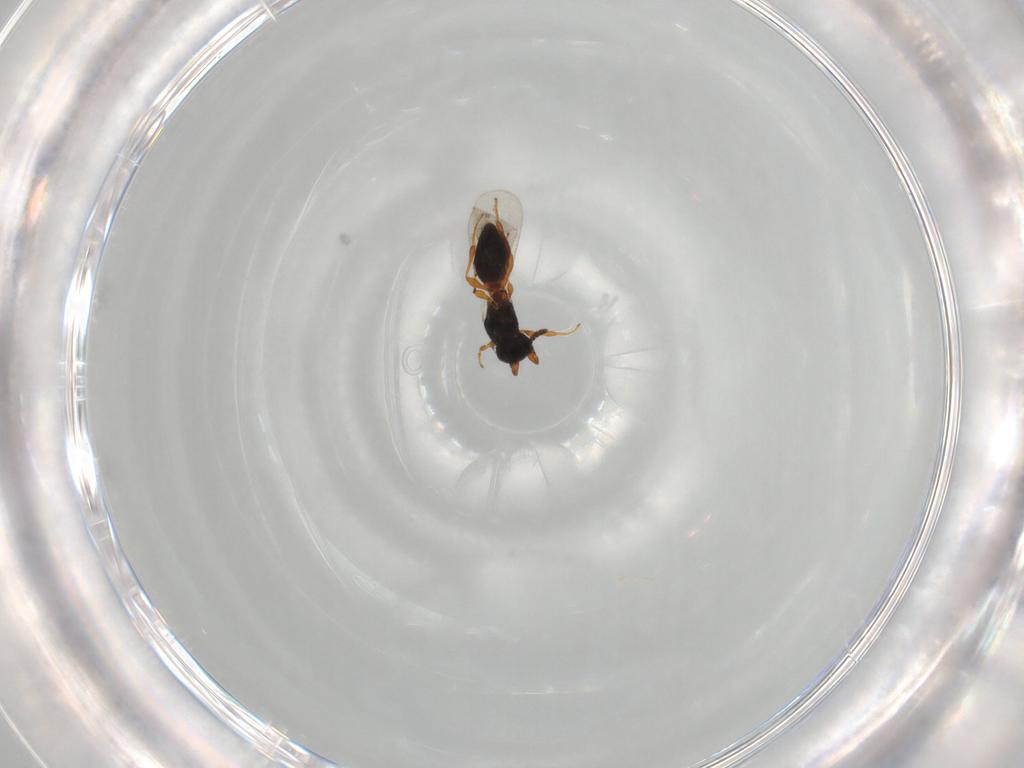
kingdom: Animalia
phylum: Arthropoda
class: Insecta
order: Hymenoptera
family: Platygastridae
